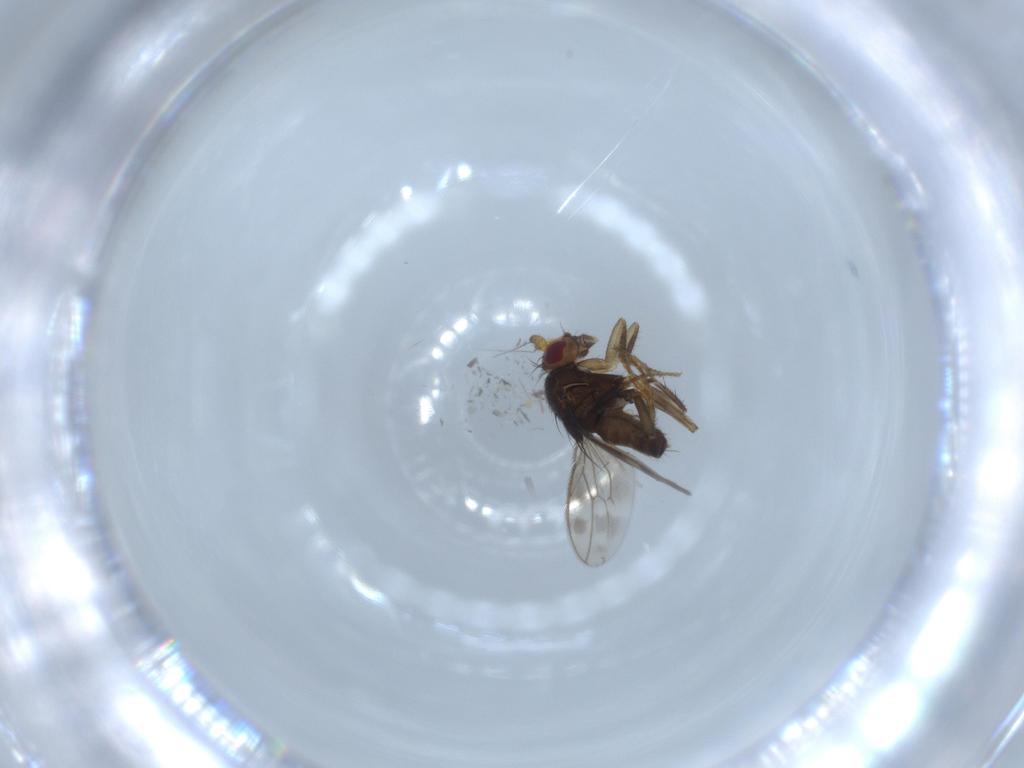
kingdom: Animalia
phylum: Arthropoda
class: Insecta
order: Diptera
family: Sphaeroceridae
